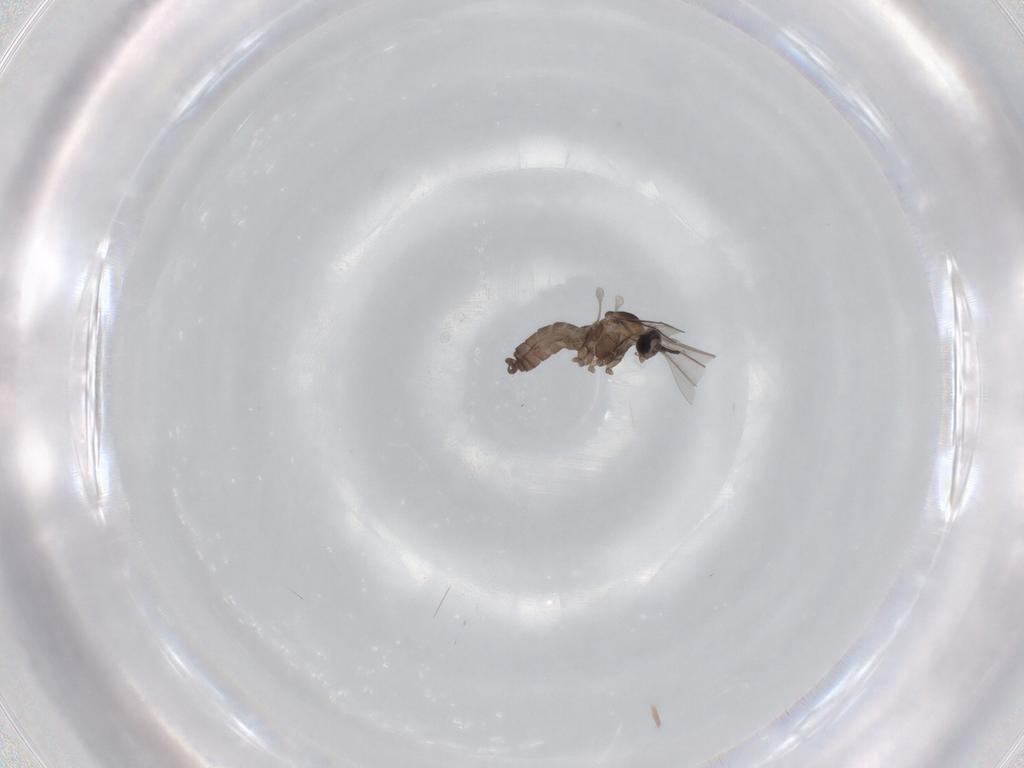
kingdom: Animalia
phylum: Arthropoda
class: Insecta
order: Diptera
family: Cecidomyiidae
